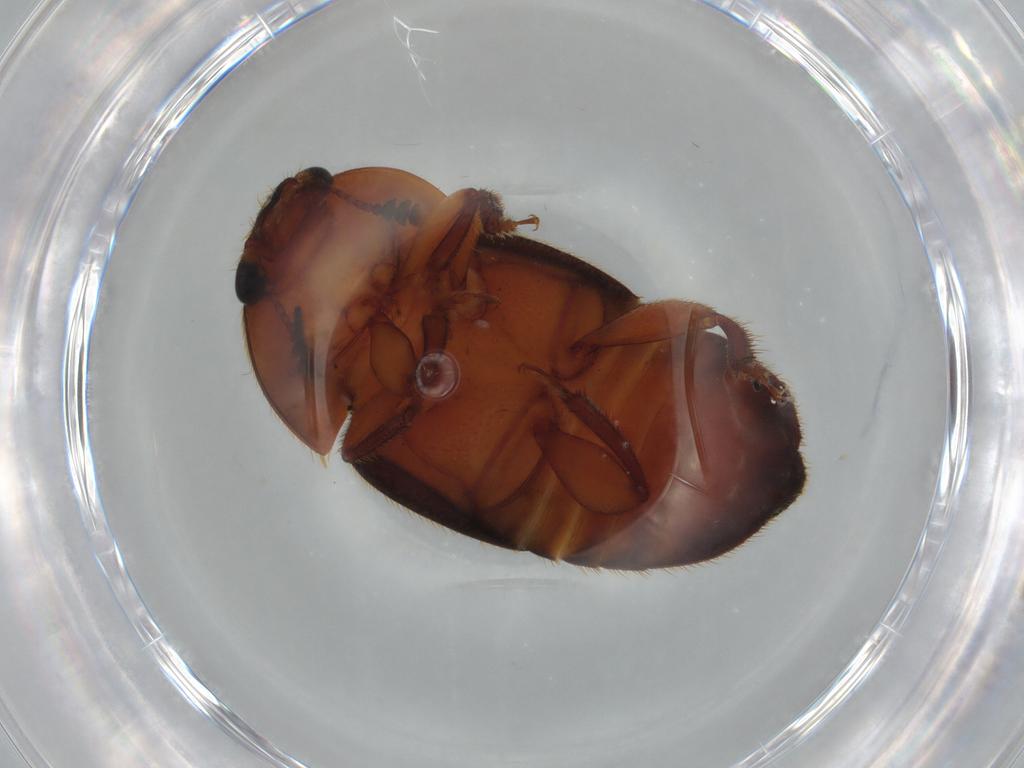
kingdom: Animalia
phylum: Arthropoda
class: Insecta
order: Coleoptera
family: Nitidulidae
